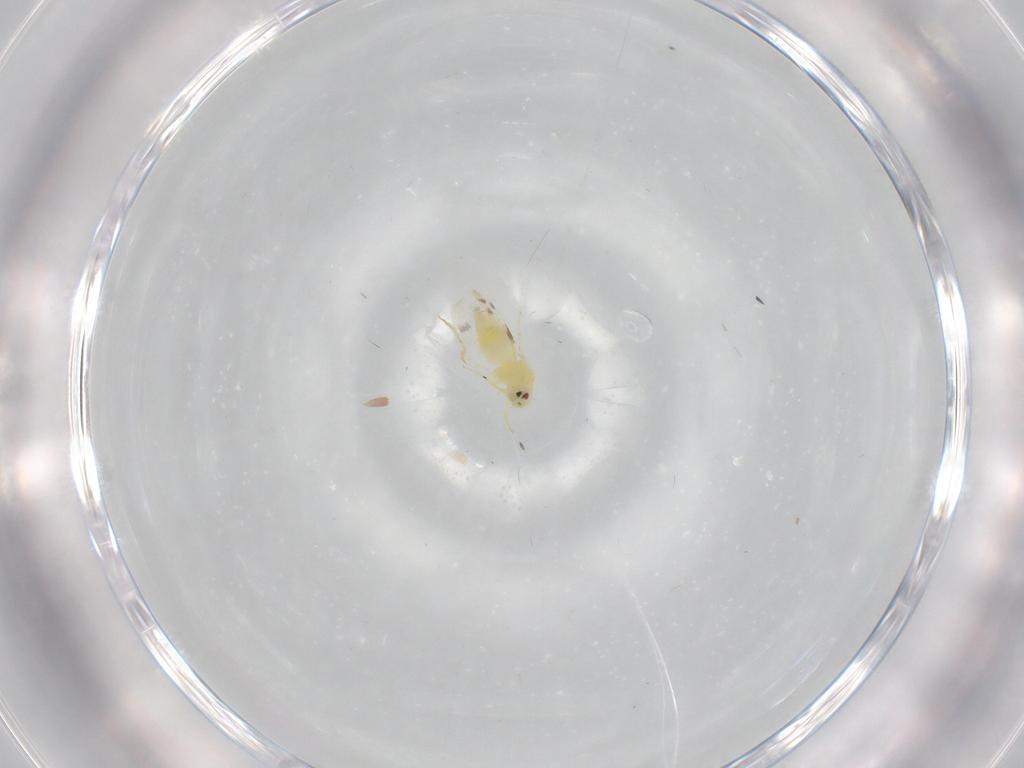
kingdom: Animalia
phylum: Arthropoda
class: Insecta
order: Hemiptera
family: Aleyrodidae
